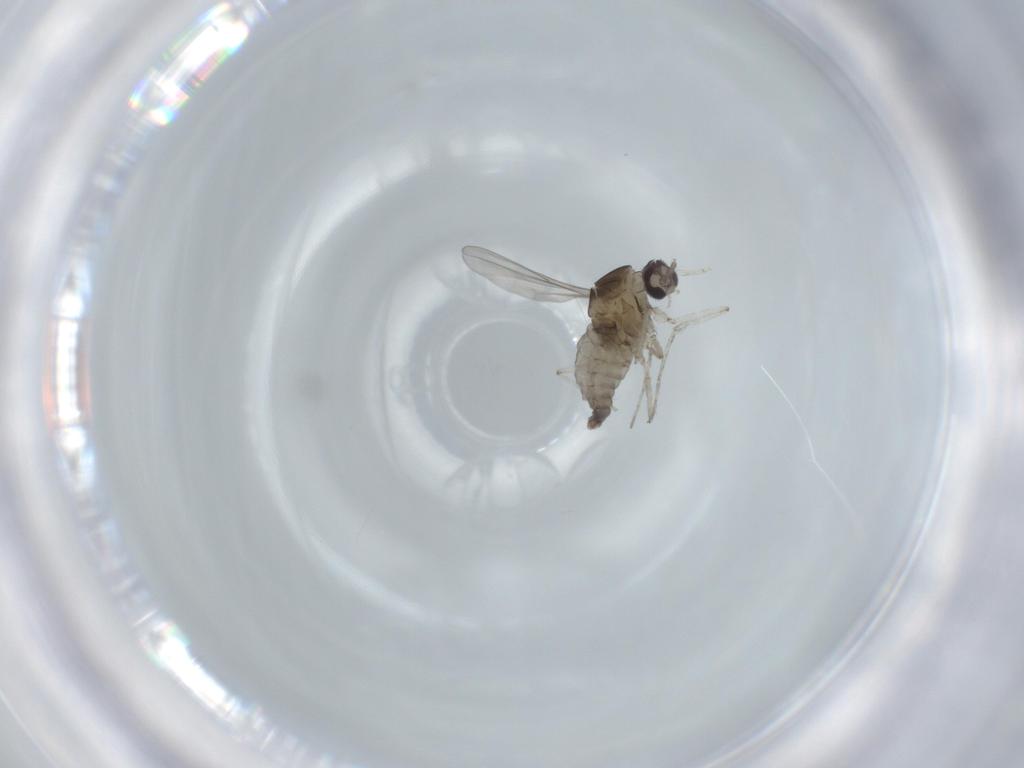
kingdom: Animalia
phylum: Arthropoda
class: Insecta
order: Diptera
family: Cecidomyiidae
